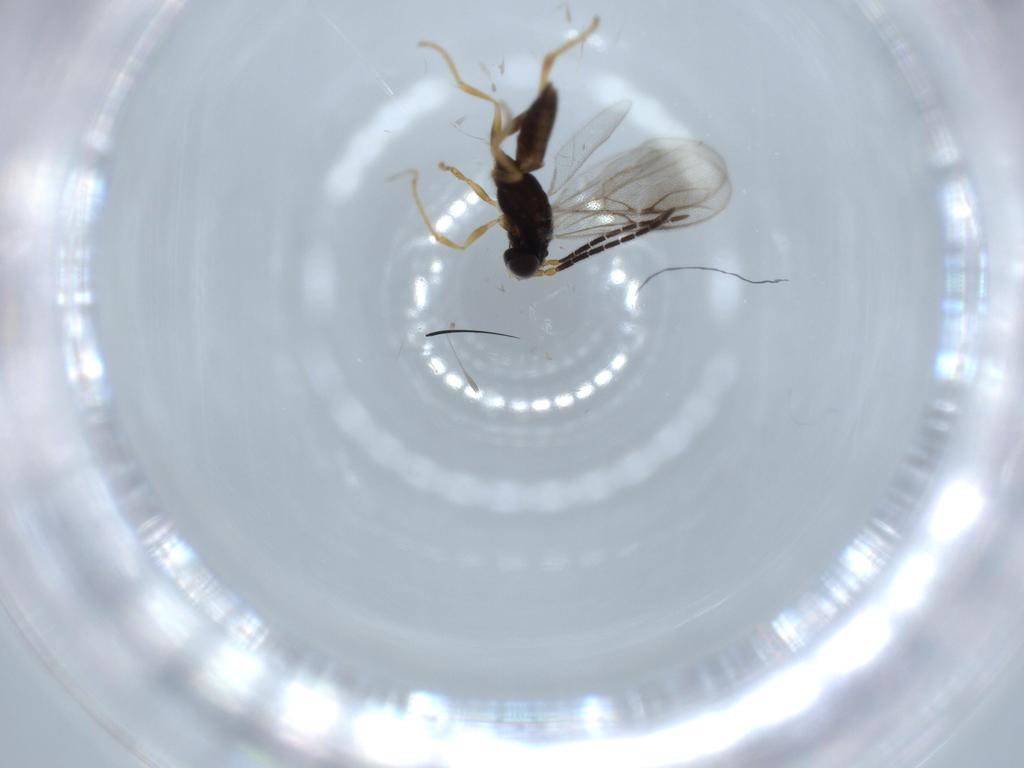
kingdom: Animalia
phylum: Arthropoda
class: Insecta
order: Hymenoptera
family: Dryinidae
